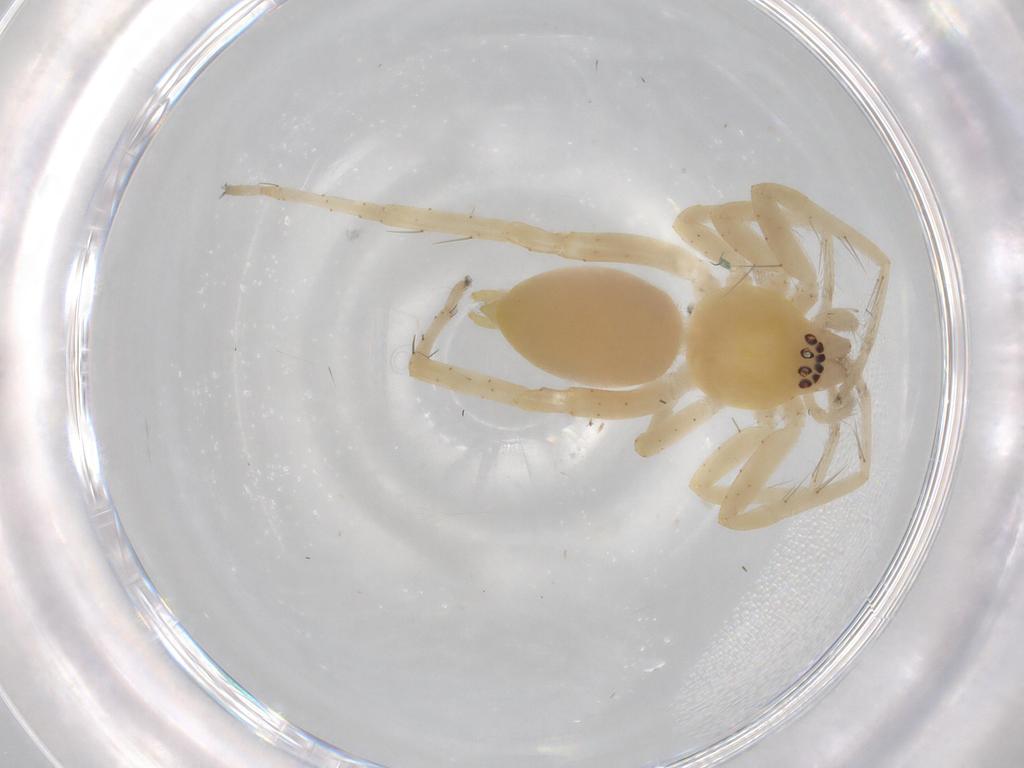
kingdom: Animalia
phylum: Arthropoda
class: Arachnida
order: Araneae
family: Anyphaenidae
